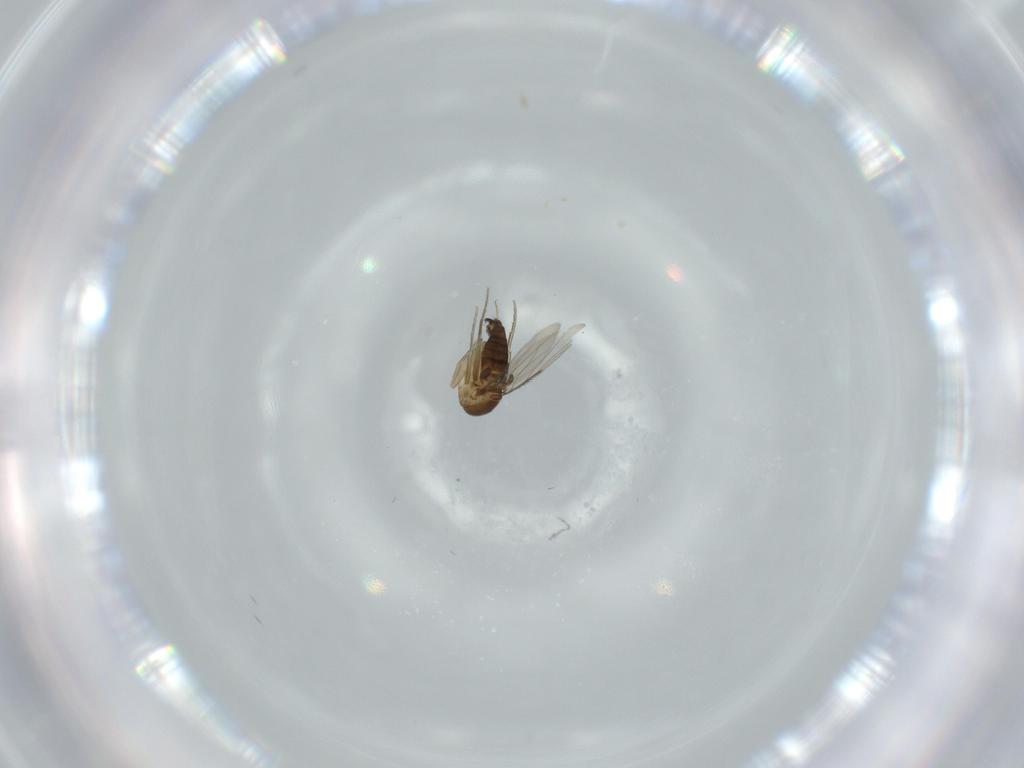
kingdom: Animalia
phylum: Arthropoda
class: Insecta
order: Diptera
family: Phoridae
